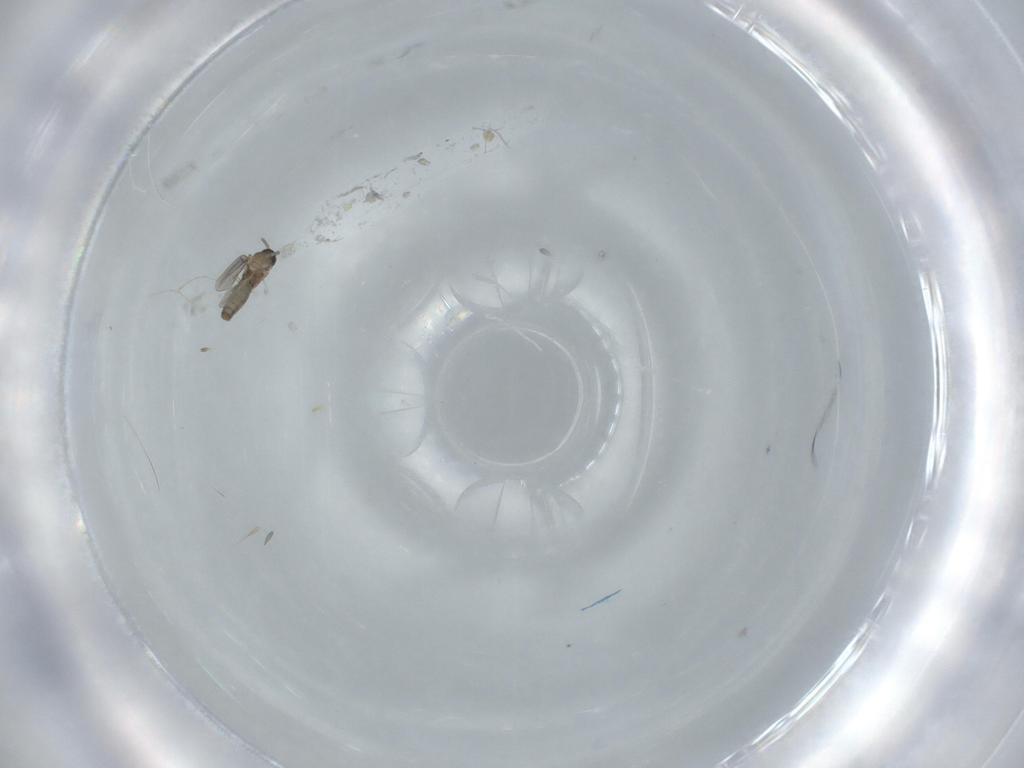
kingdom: Animalia
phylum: Arthropoda
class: Insecta
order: Diptera
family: Cecidomyiidae
